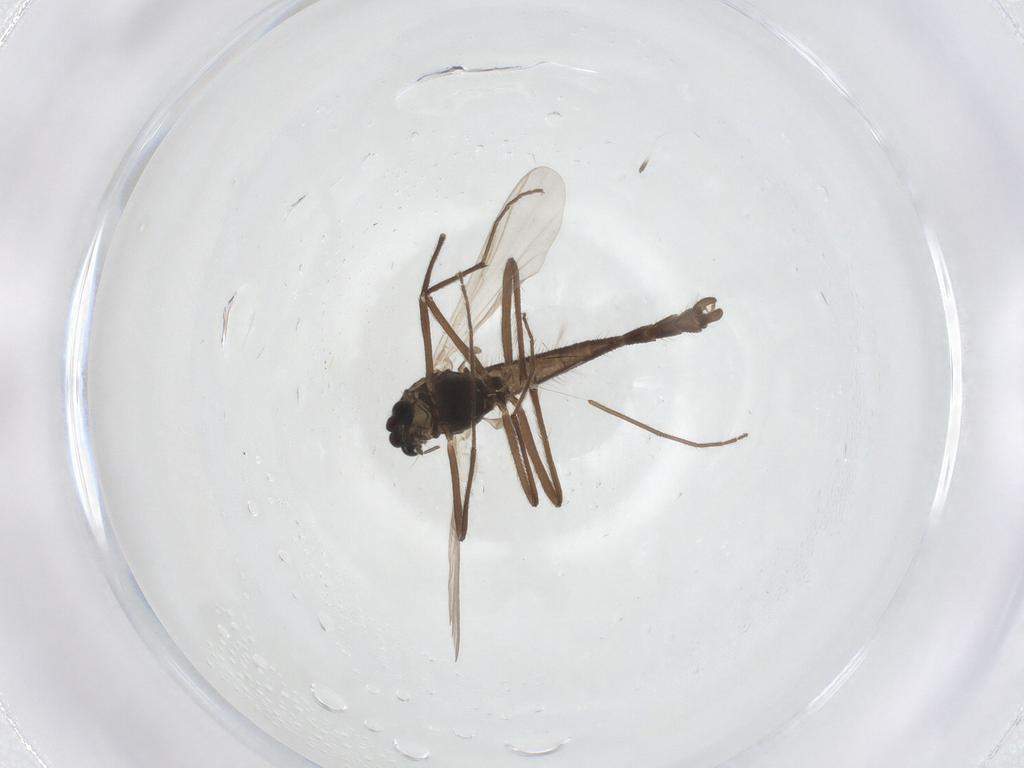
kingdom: Animalia
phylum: Arthropoda
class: Insecta
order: Diptera
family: Chironomidae
